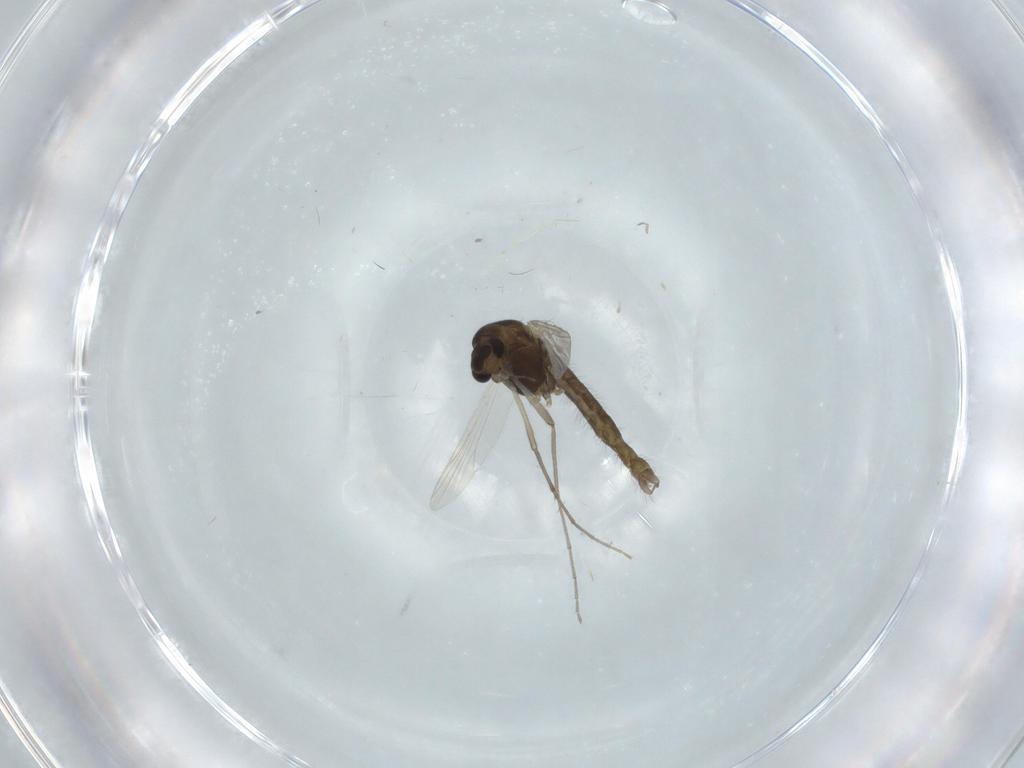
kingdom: Animalia
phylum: Arthropoda
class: Insecta
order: Diptera
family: Chironomidae
